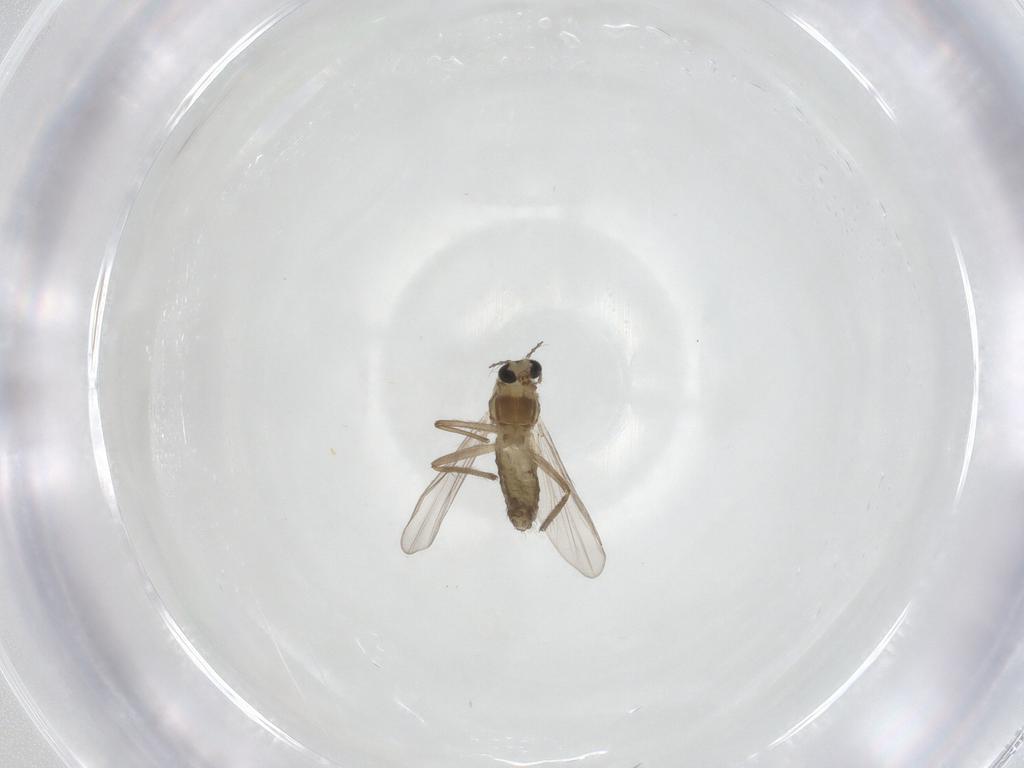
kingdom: Animalia
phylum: Arthropoda
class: Insecta
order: Diptera
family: Chironomidae
